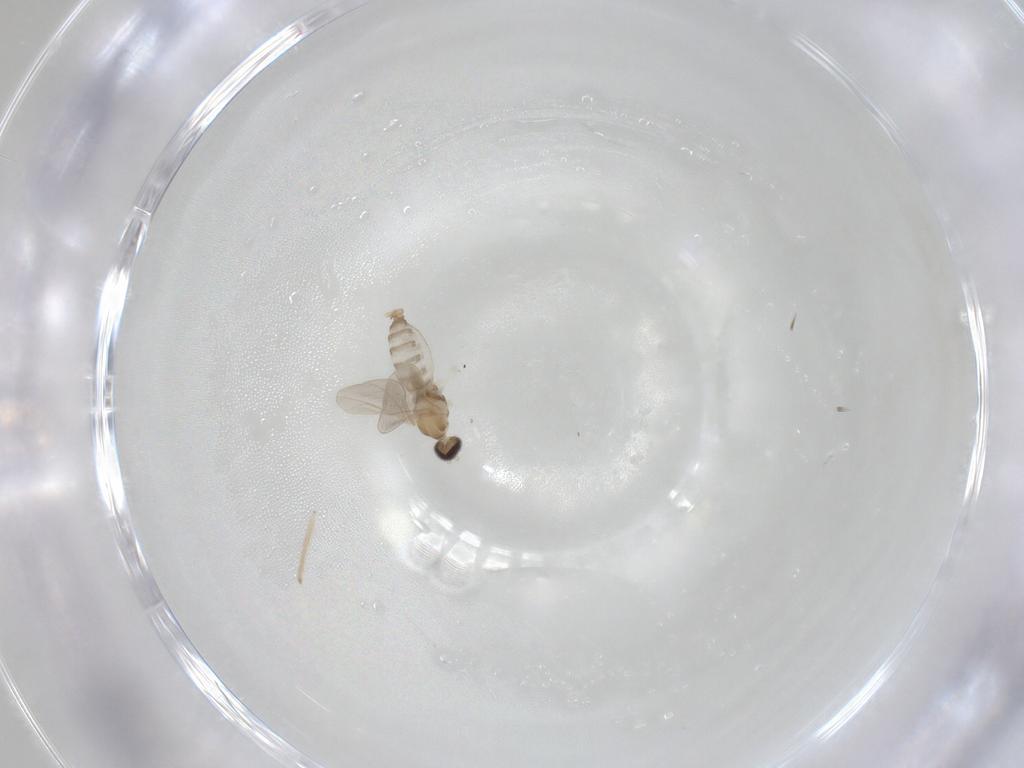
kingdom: Animalia
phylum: Arthropoda
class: Insecta
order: Diptera
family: Cecidomyiidae
